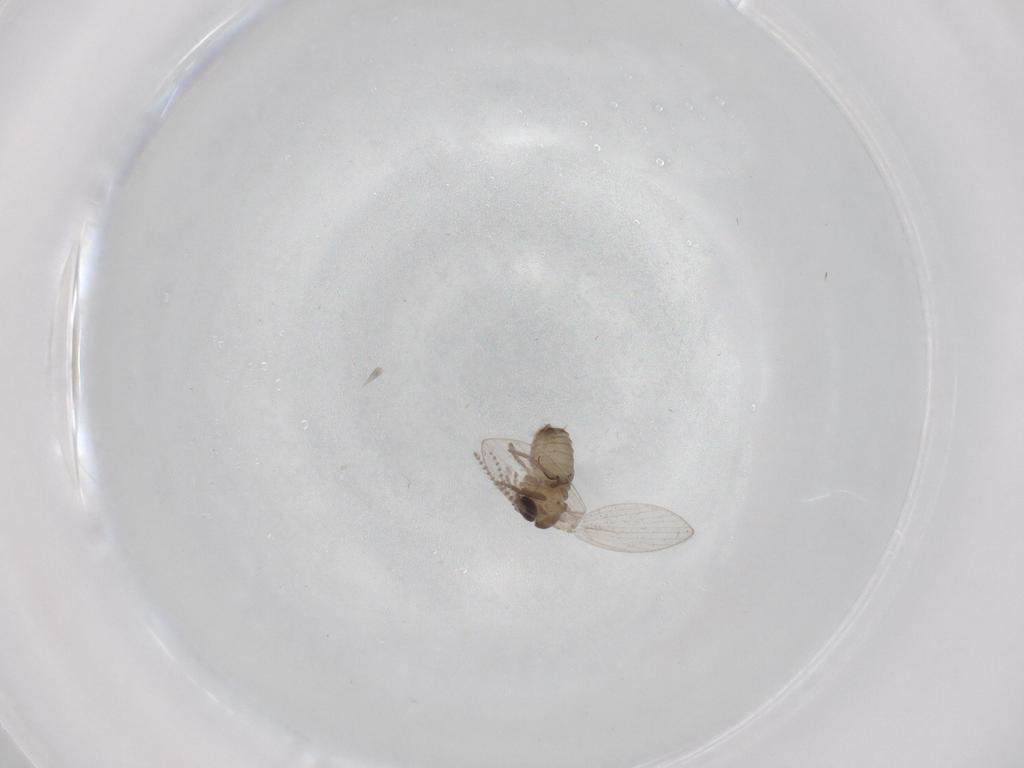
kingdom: Animalia
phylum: Arthropoda
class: Insecta
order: Diptera
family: Psychodidae
